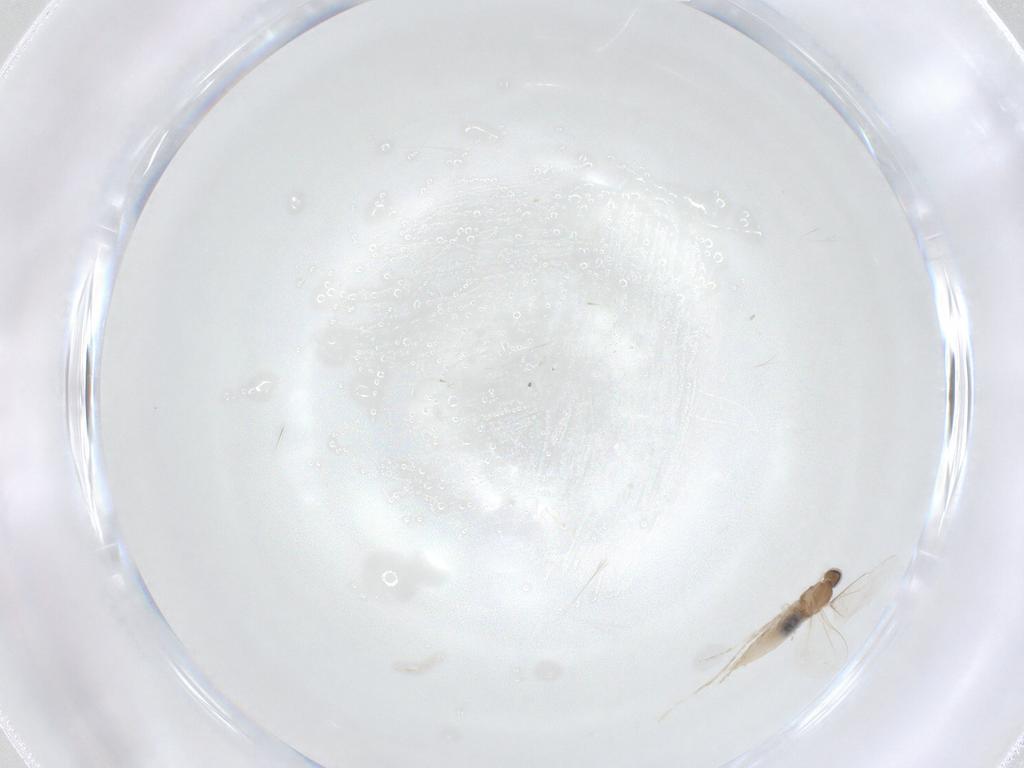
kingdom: Animalia
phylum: Arthropoda
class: Insecta
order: Diptera
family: Cecidomyiidae
